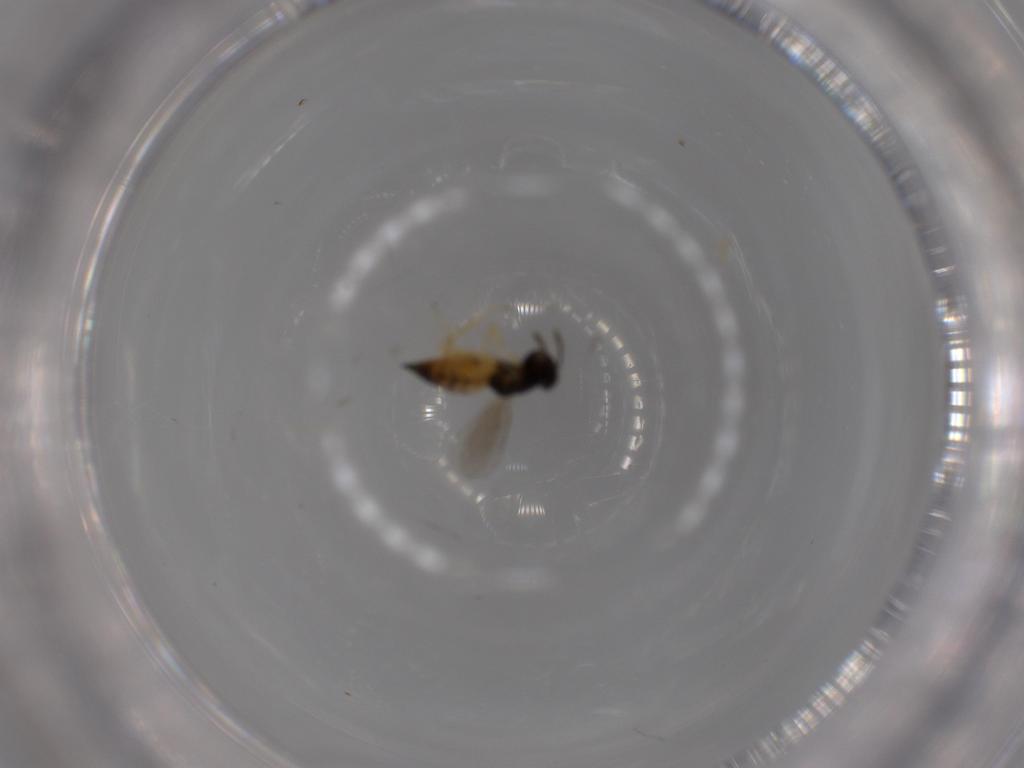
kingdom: Animalia
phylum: Arthropoda
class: Insecta
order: Hymenoptera
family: Eulophidae
